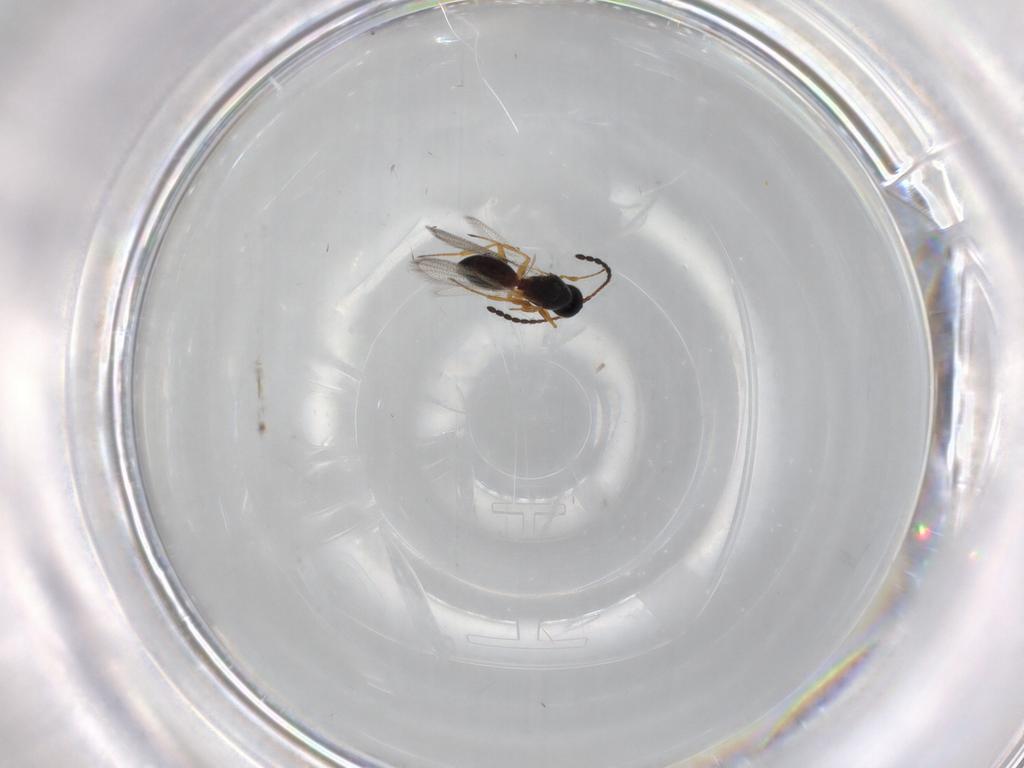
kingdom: Animalia
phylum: Arthropoda
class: Insecta
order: Hymenoptera
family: Figitidae
